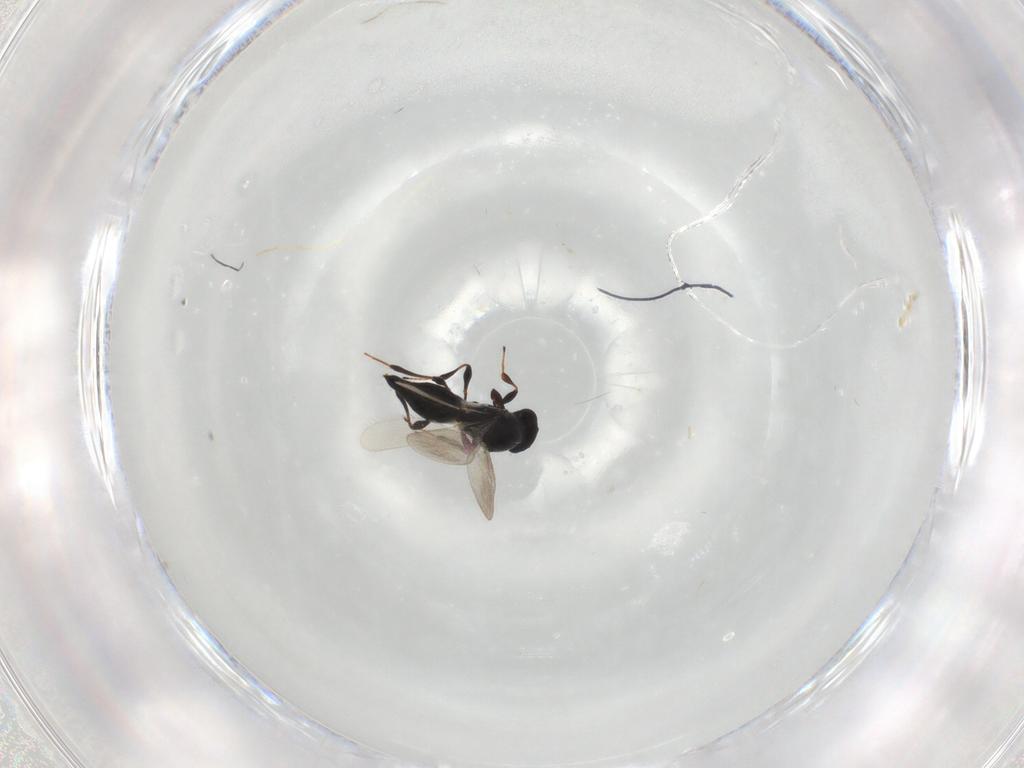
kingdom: Animalia
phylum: Arthropoda
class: Insecta
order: Hymenoptera
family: Platygastridae
